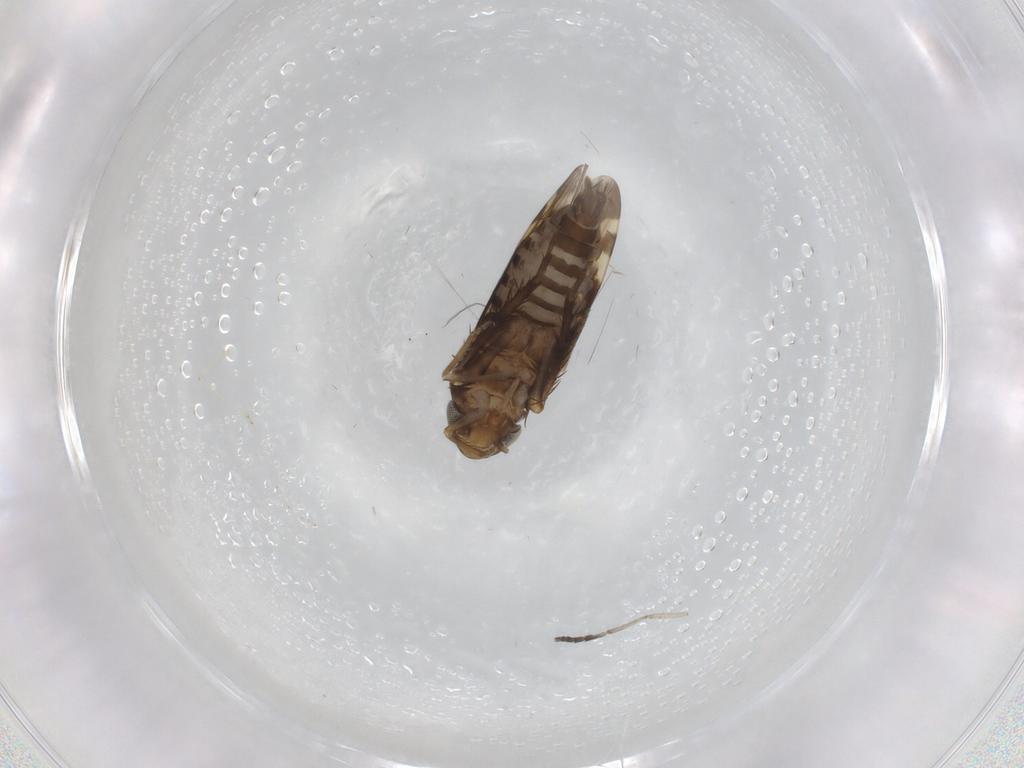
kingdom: Animalia
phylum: Arthropoda
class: Insecta
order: Hemiptera
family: Cicadellidae
